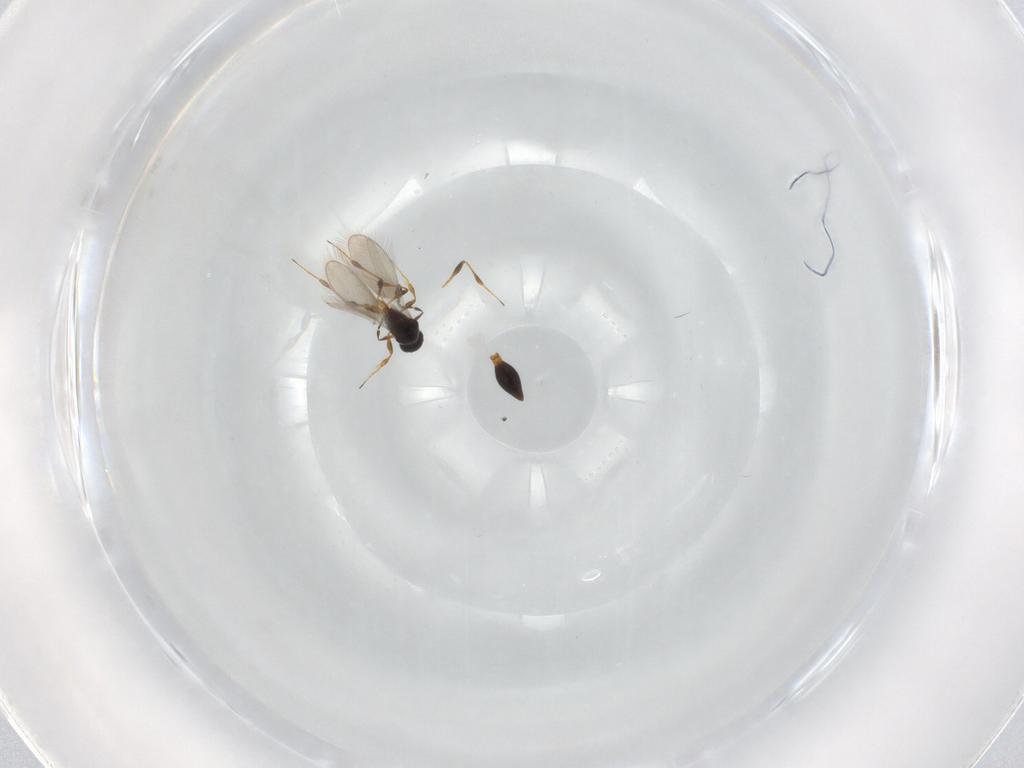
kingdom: Animalia
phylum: Arthropoda
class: Insecta
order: Hymenoptera
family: Platygastridae
